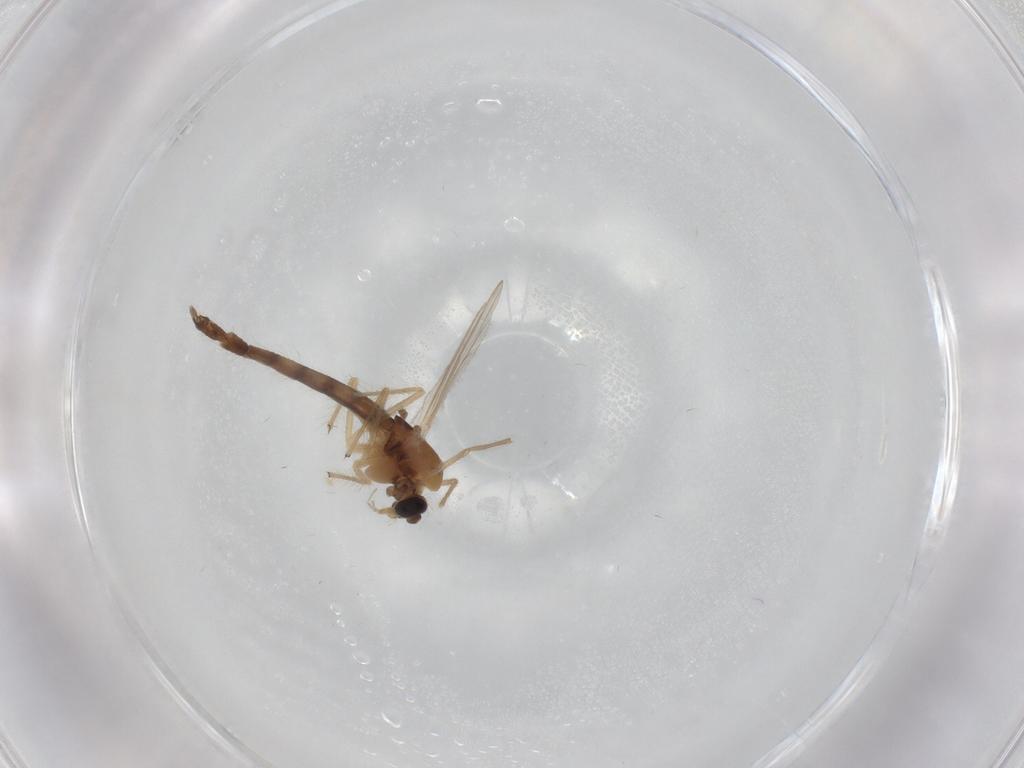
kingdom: Animalia
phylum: Arthropoda
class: Insecta
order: Diptera
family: Chironomidae
